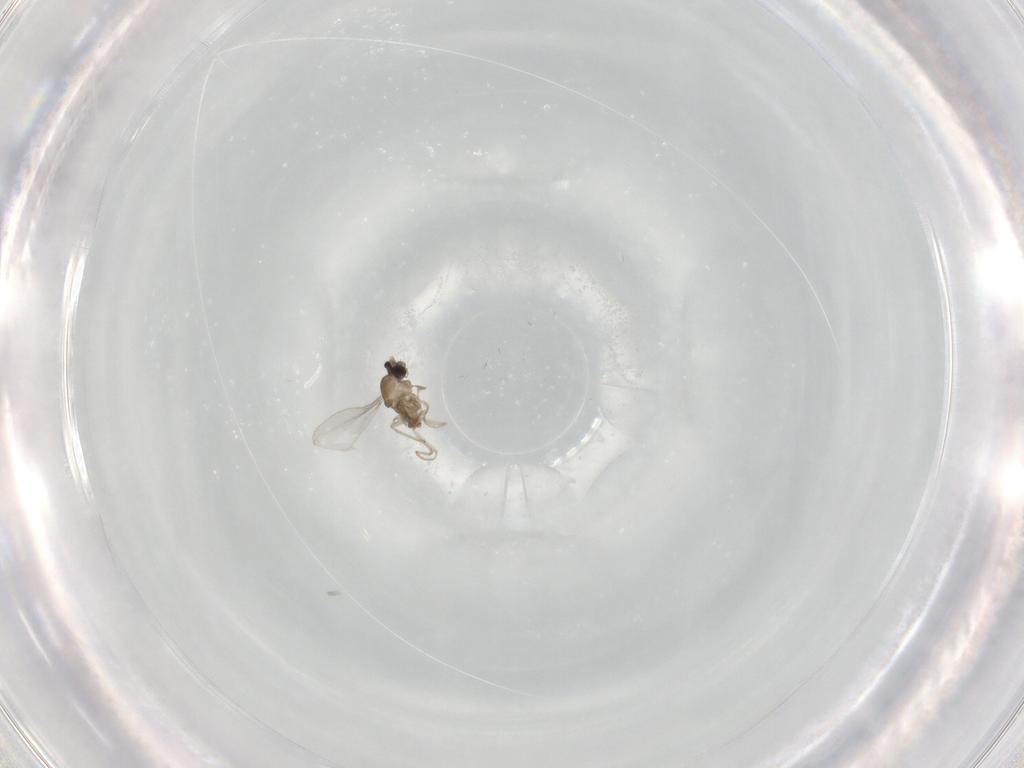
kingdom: Animalia
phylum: Arthropoda
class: Insecta
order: Diptera
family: Cecidomyiidae
